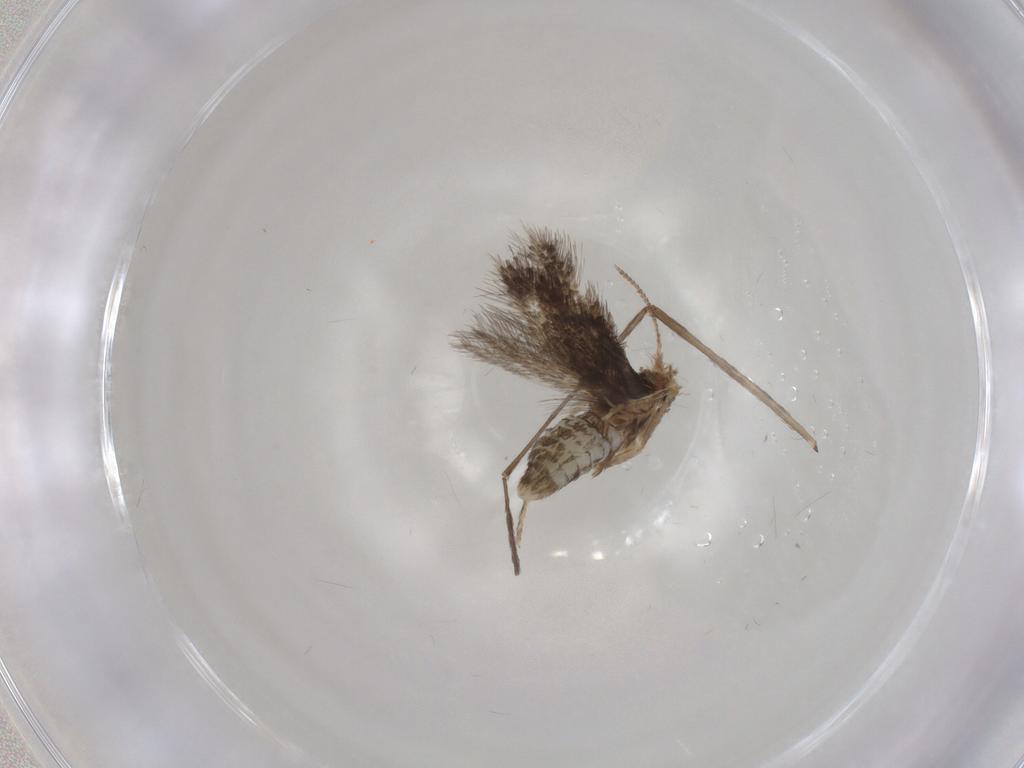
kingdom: Animalia
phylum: Arthropoda
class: Insecta
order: Lepidoptera
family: Nepticulidae
